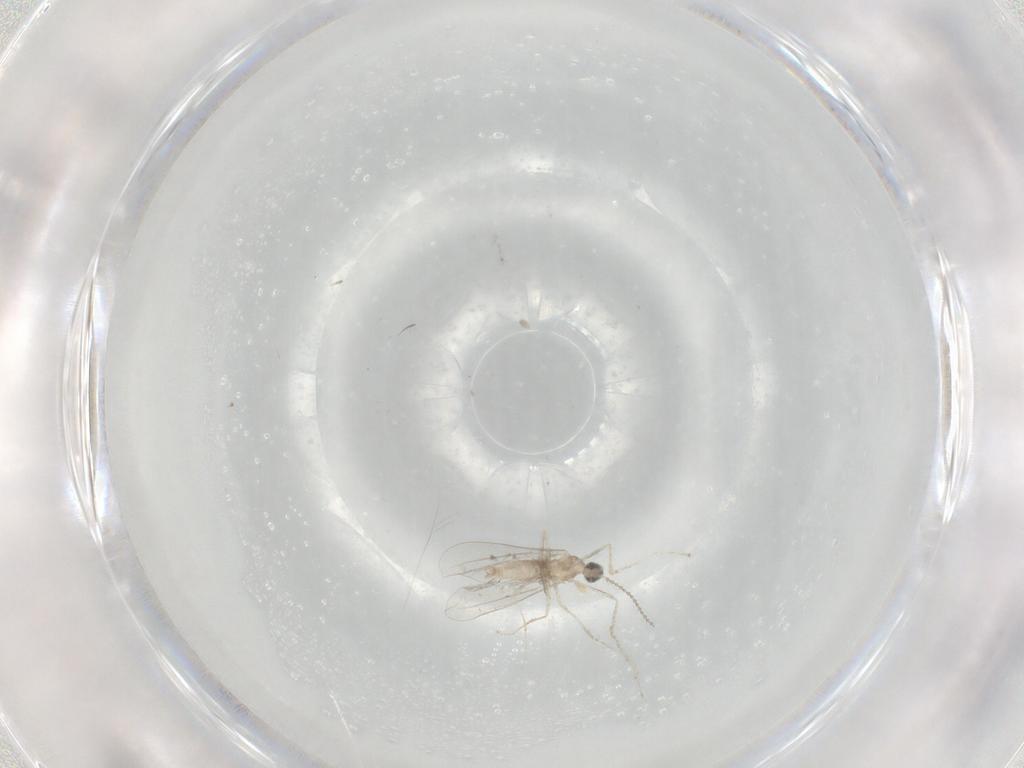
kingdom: Animalia
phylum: Arthropoda
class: Insecta
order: Diptera
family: Cecidomyiidae
